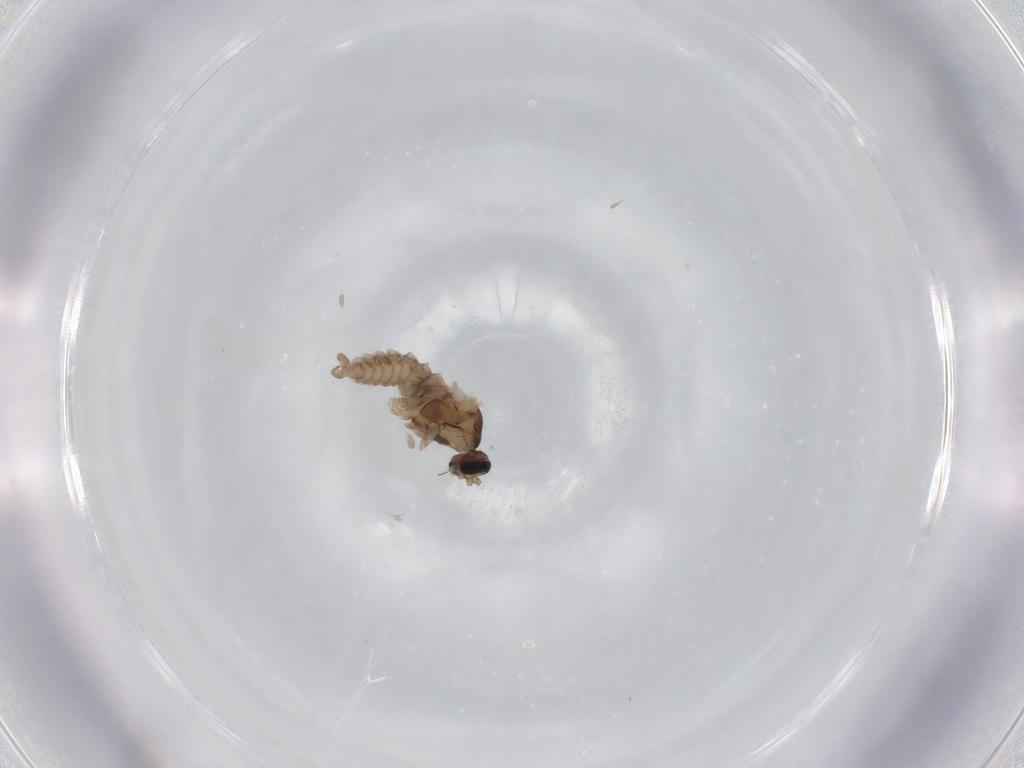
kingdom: Animalia
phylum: Arthropoda
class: Insecta
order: Diptera
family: Cecidomyiidae
